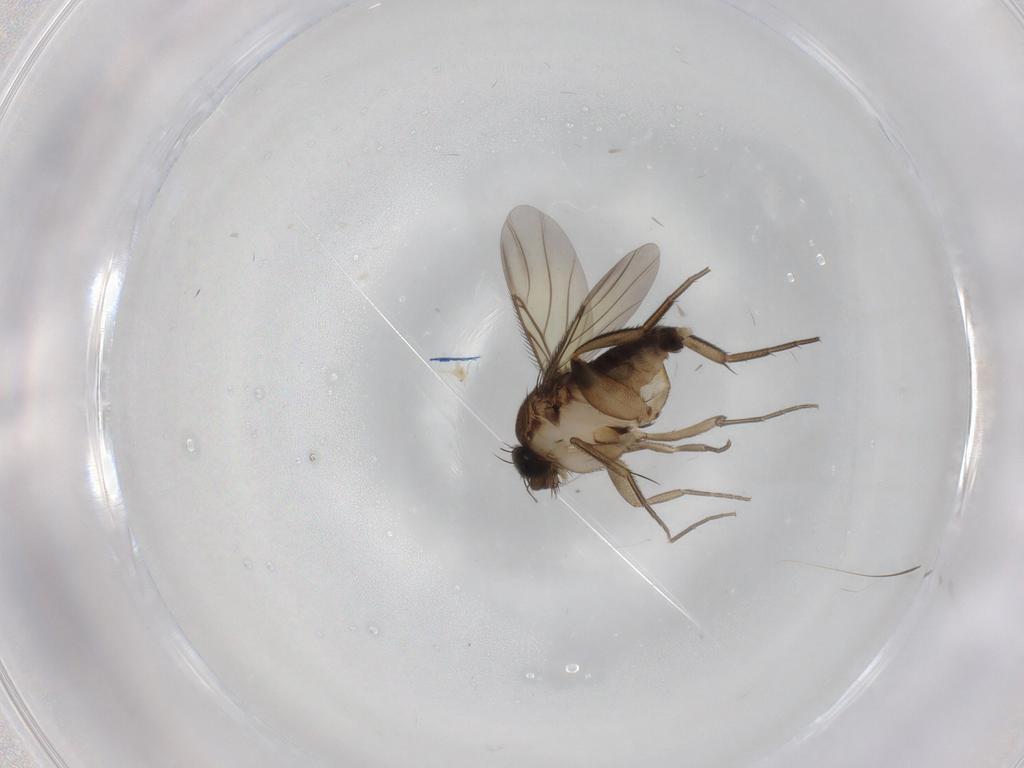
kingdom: Animalia
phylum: Arthropoda
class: Insecta
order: Diptera
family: Phoridae
